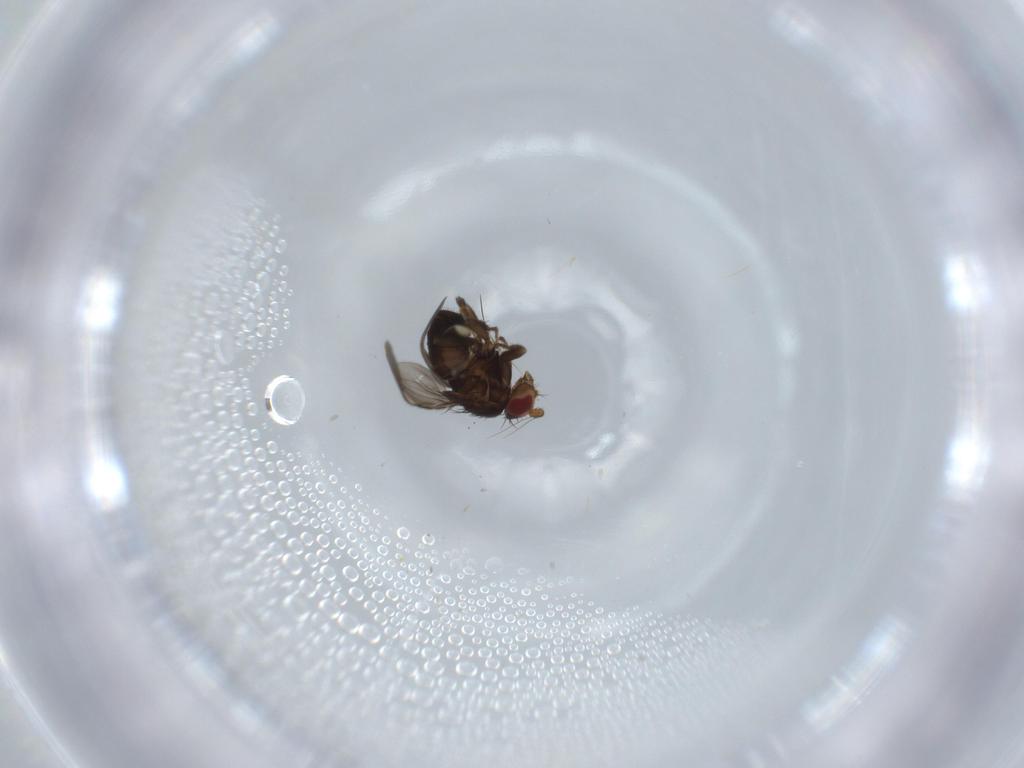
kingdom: Animalia
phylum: Arthropoda
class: Insecta
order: Diptera
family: Cecidomyiidae
